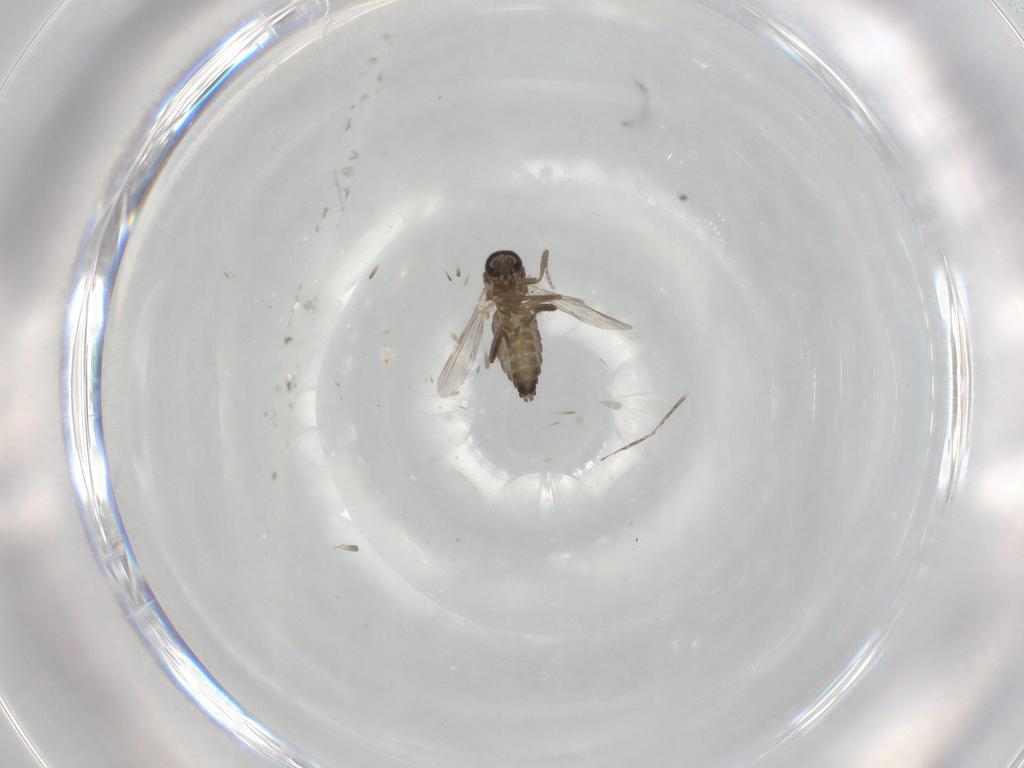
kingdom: Animalia
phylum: Arthropoda
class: Insecta
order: Diptera
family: Ceratopogonidae
